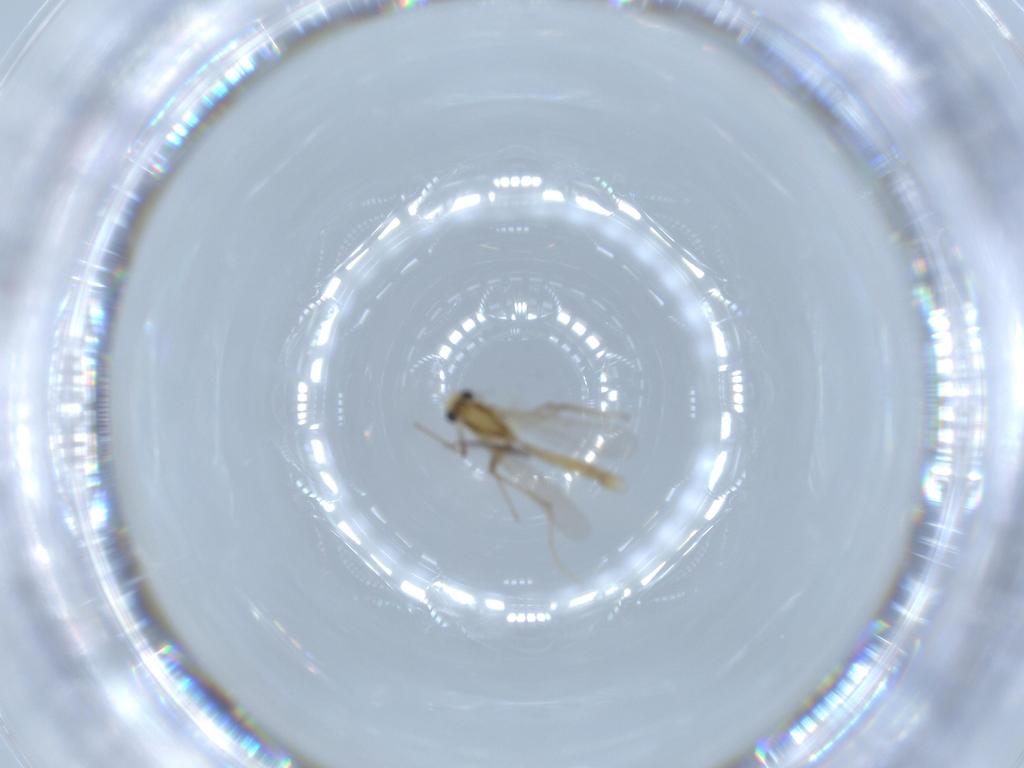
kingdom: Animalia
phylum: Arthropoda
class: Insecta
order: Diptera
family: Chironomidae
